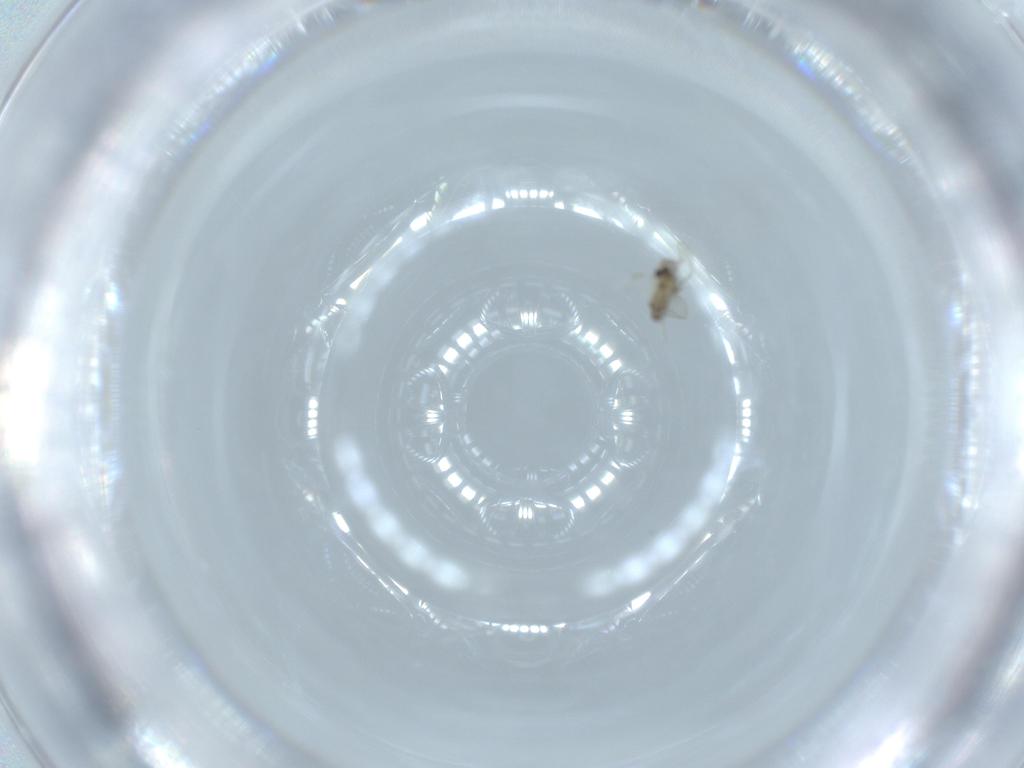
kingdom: Animalia
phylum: Arthropoda
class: Insecta
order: Diptera
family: Cecidomyiidae
